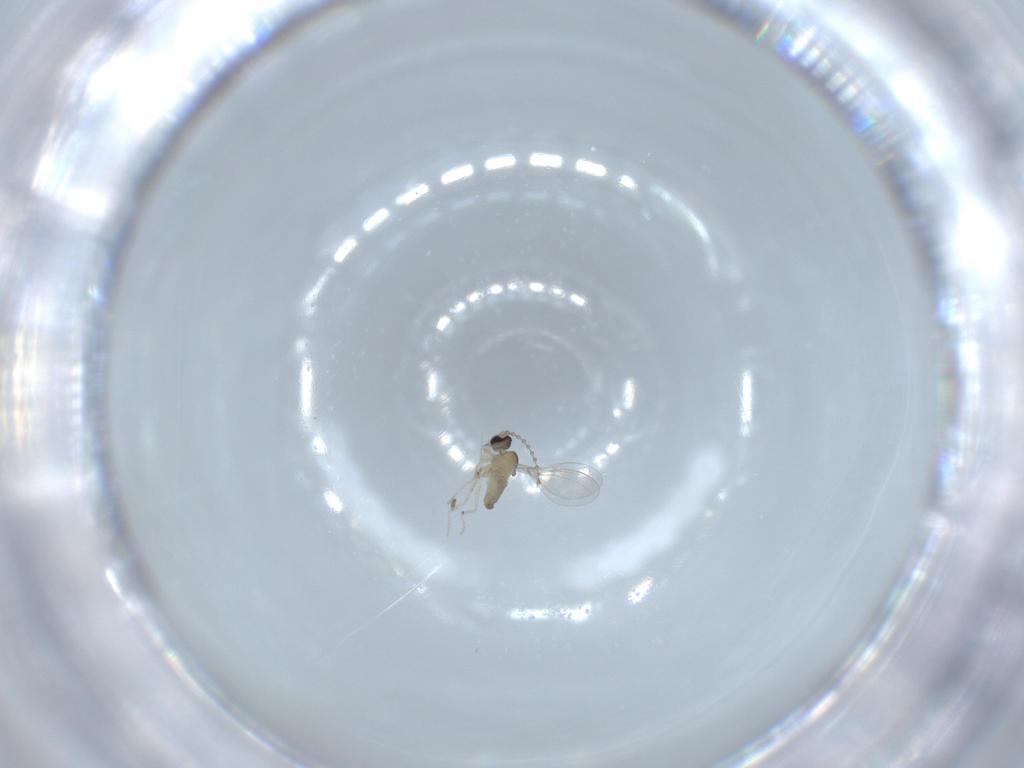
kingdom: Animalia
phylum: Arthropoda
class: Insecta
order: Diptera
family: Cecidomyiidae
